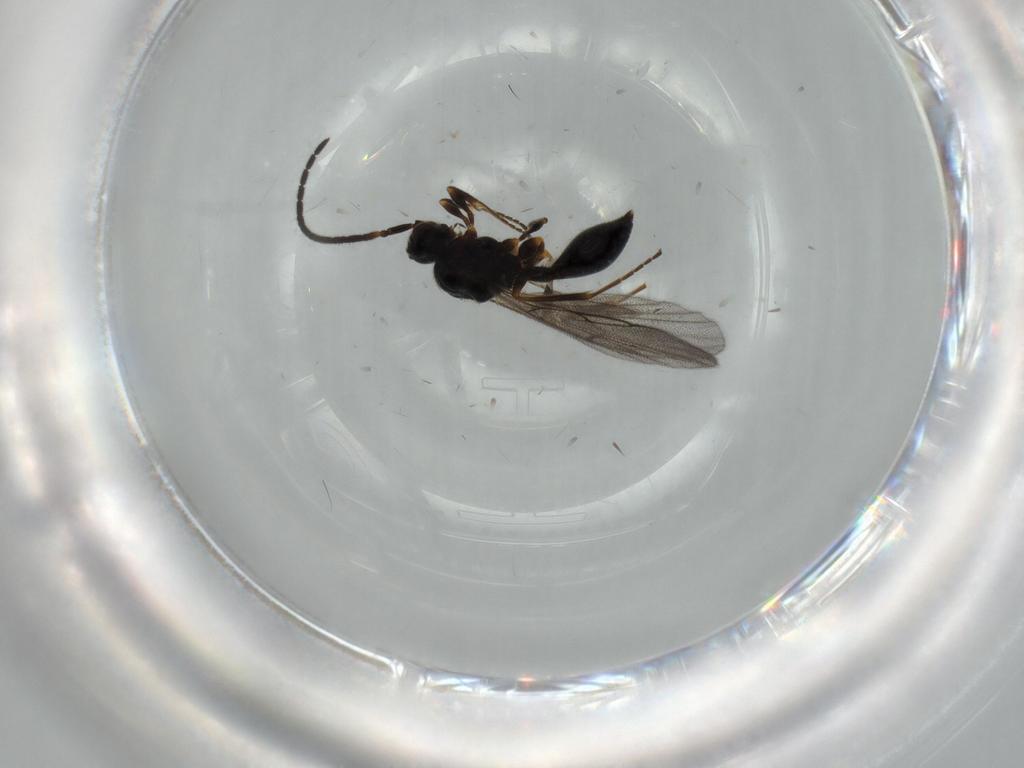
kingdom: Animalia
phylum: Arthropoda
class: Insecta
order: Hymenoptera
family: Diapriidae
